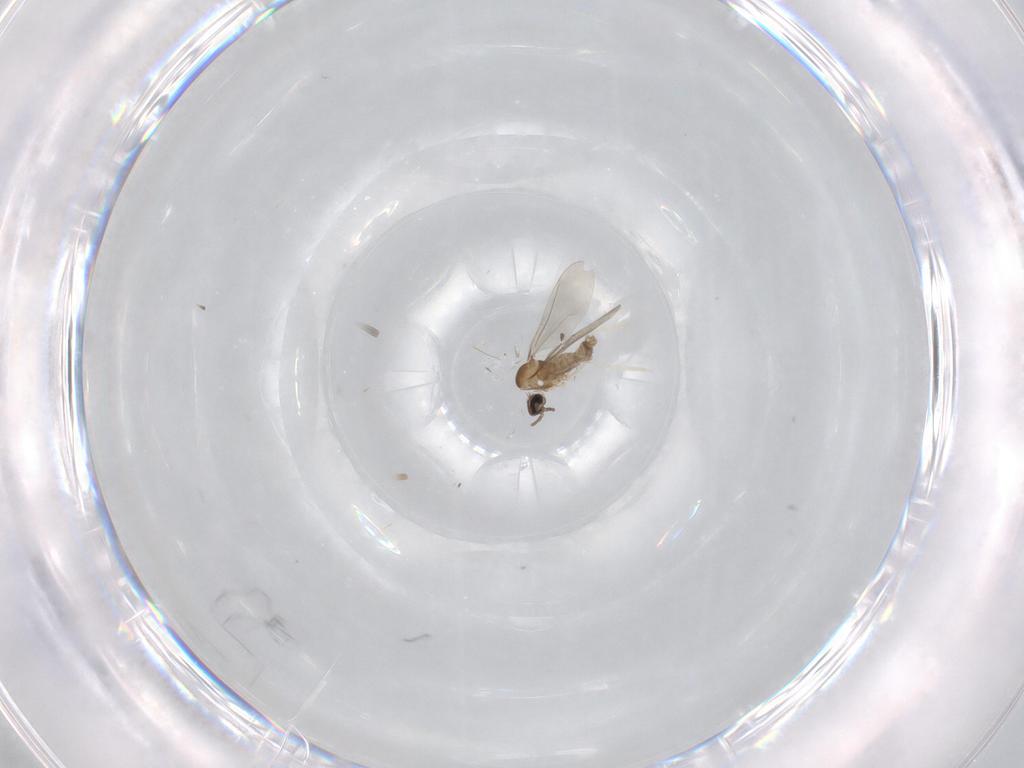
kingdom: Animalia
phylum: Arthropoda
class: Insecta
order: Diptera
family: Cecidomyiidae
